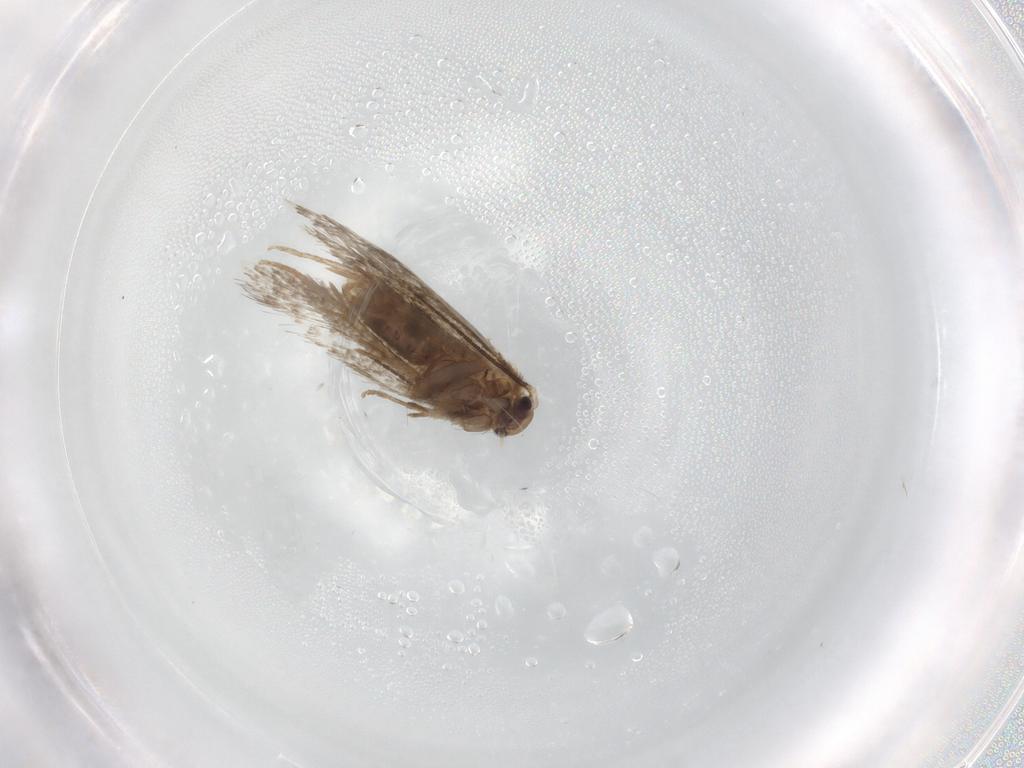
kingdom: Animalia
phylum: Arthropoda
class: Insecta
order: Lepidoptera
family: Psychidae
